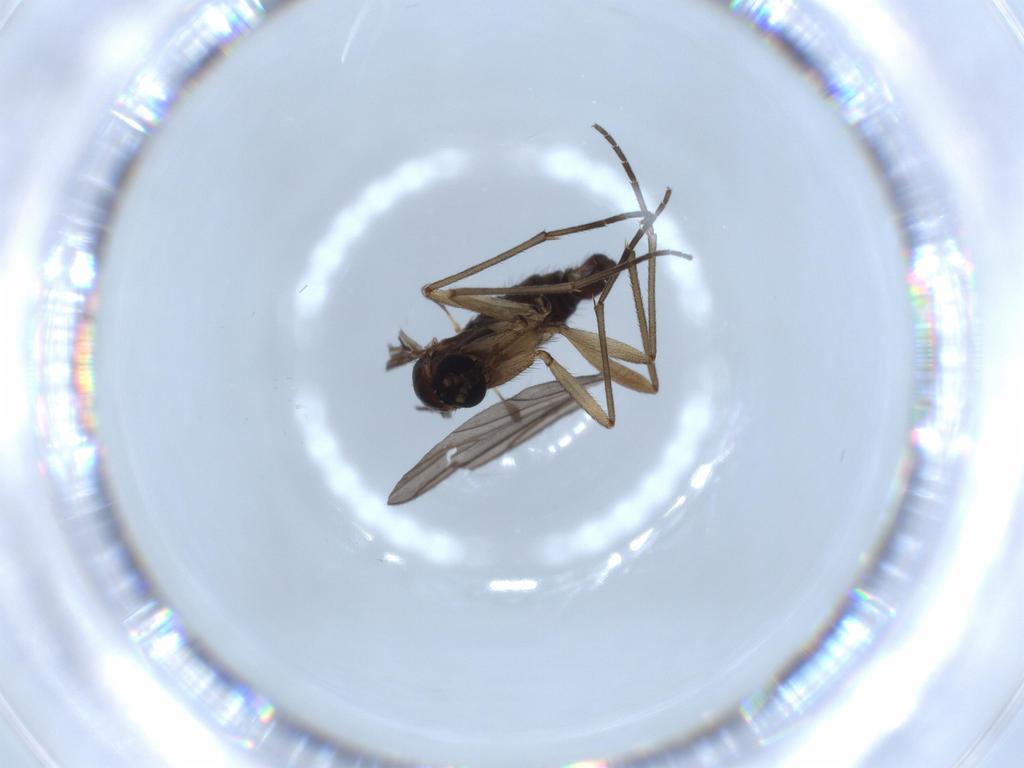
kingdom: Animalia
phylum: Arthropoda
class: Insecta
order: Diptera
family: Sciaridae
